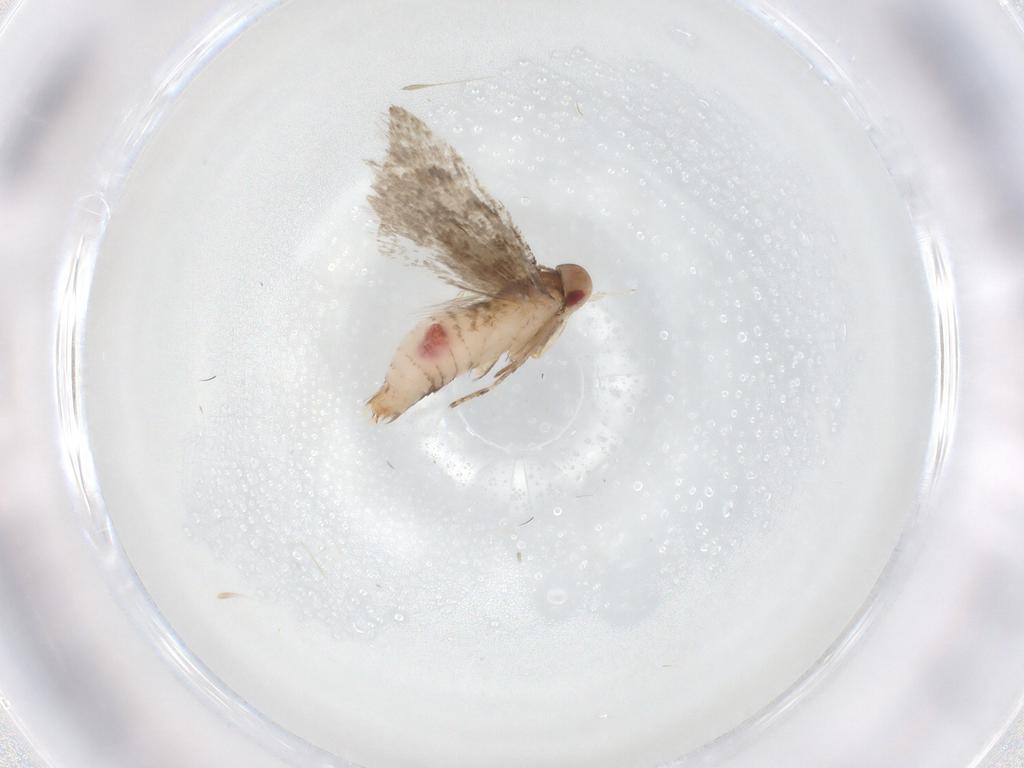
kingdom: Animalia
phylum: Arthropoda
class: Insecta
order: Lepidoptera
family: Gelechiidae
